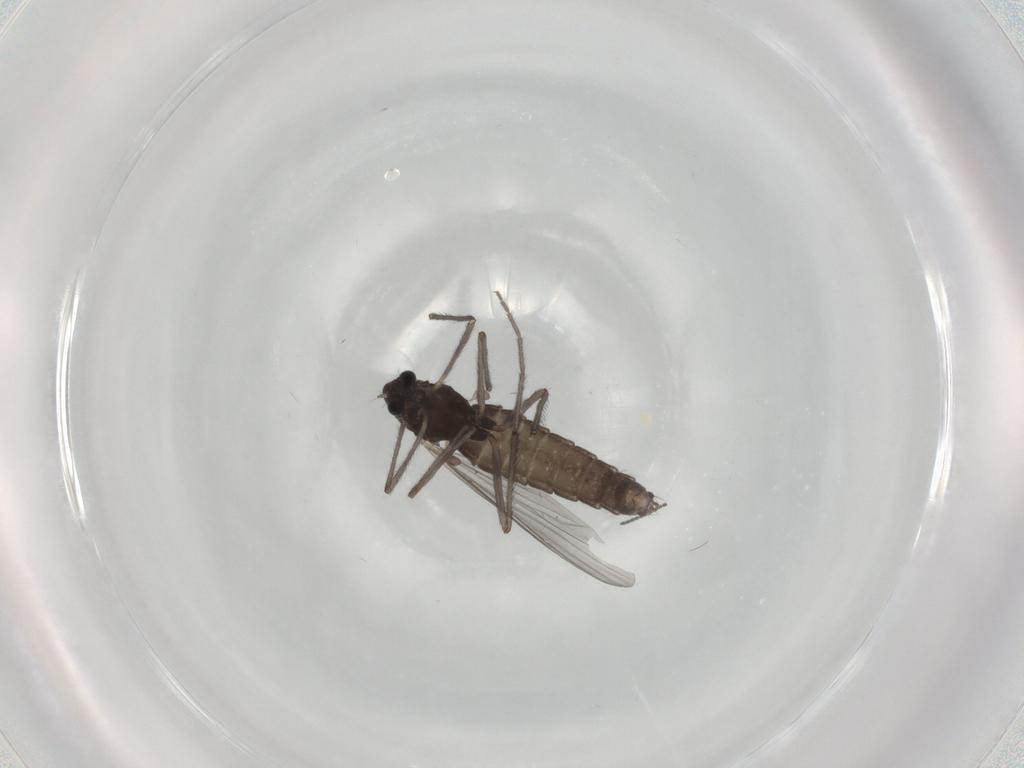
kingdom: Animalia
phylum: Arthropoda
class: Insecta
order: Diptera
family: Chironomidae
